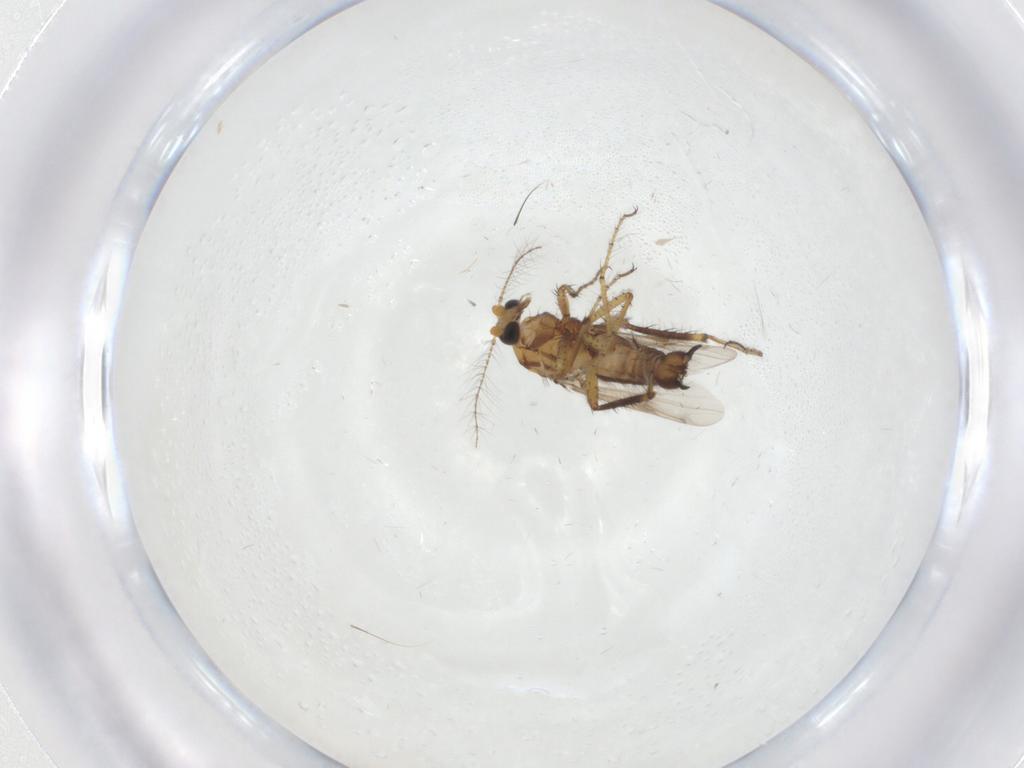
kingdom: Animalia
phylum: Arthropoda
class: Insecta
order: Diptera
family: Ceratopogonidae
